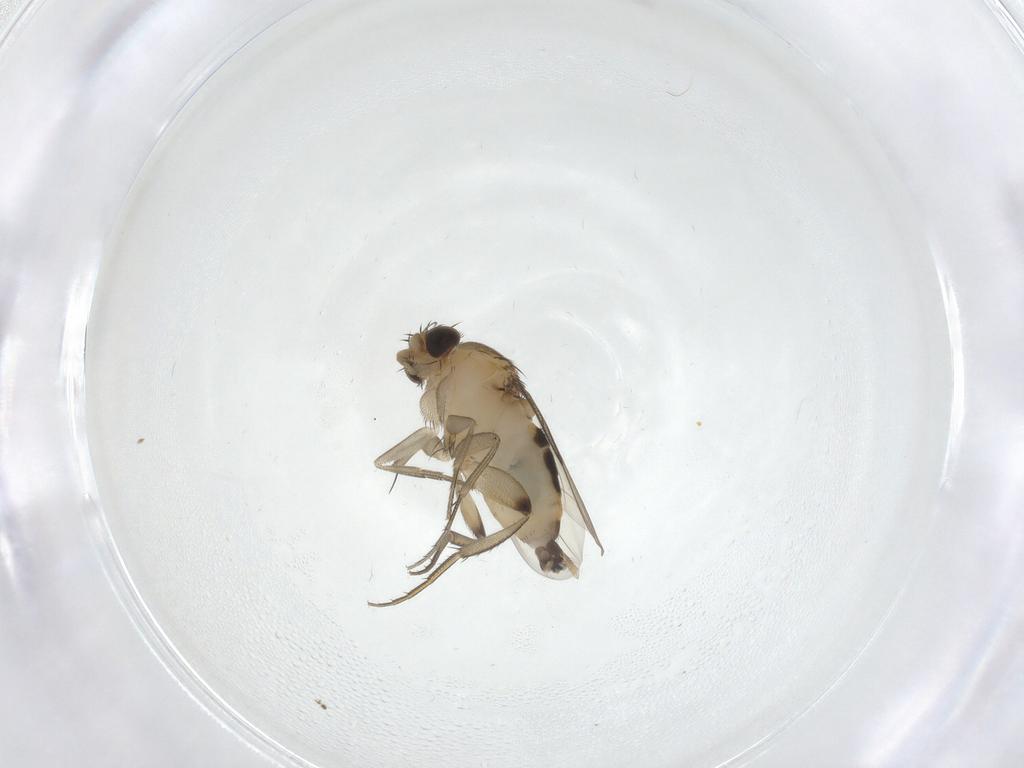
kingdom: Animalia
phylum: Arthropoda
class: Insecta
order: Diptera
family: Phoridae
